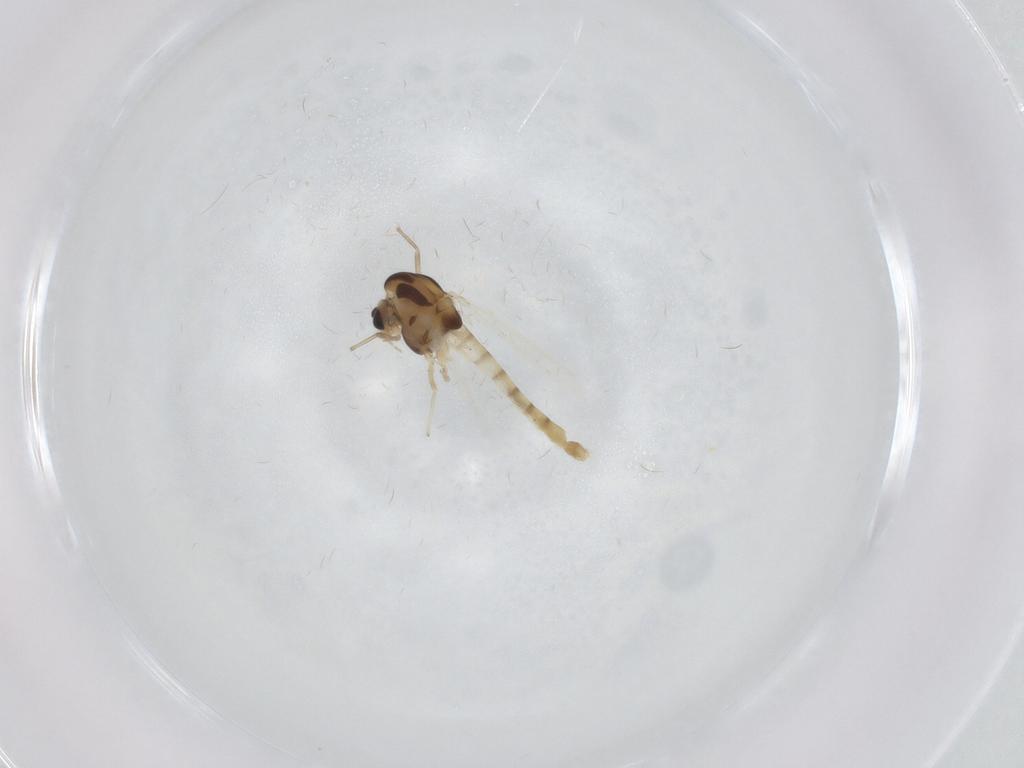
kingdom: Animalia
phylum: Arthropoda
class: Insecta
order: Diptera
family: Chironomidae
